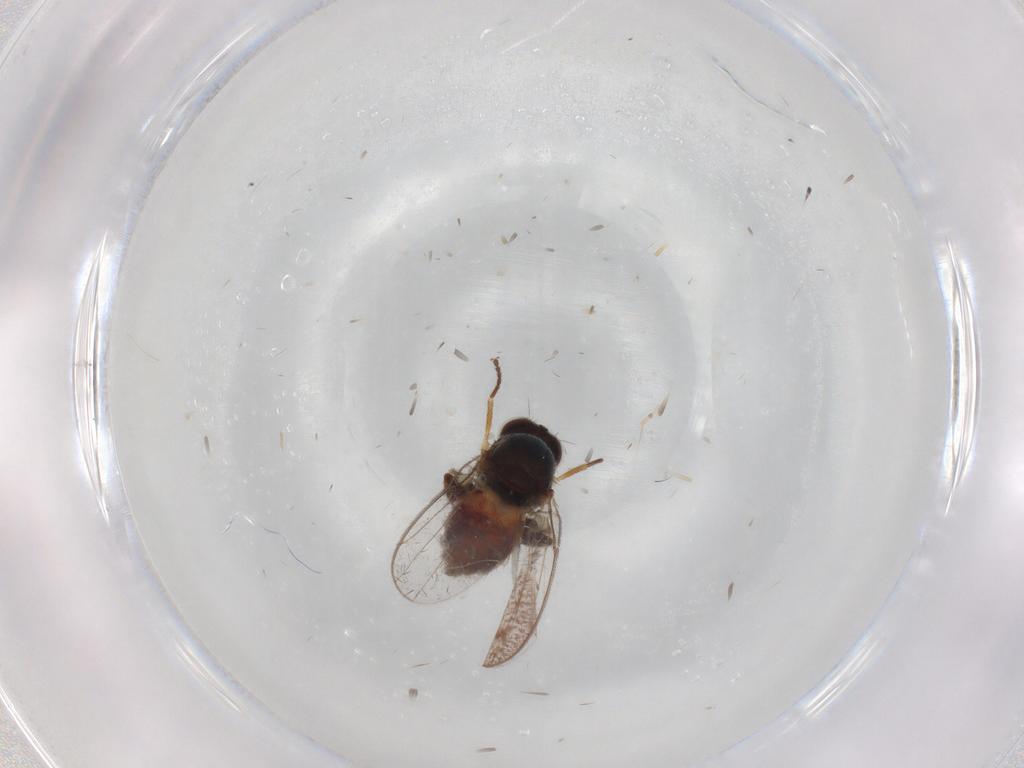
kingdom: Animalia
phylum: Arthropoda
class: Insecta
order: Diptera
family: Chloropidae
